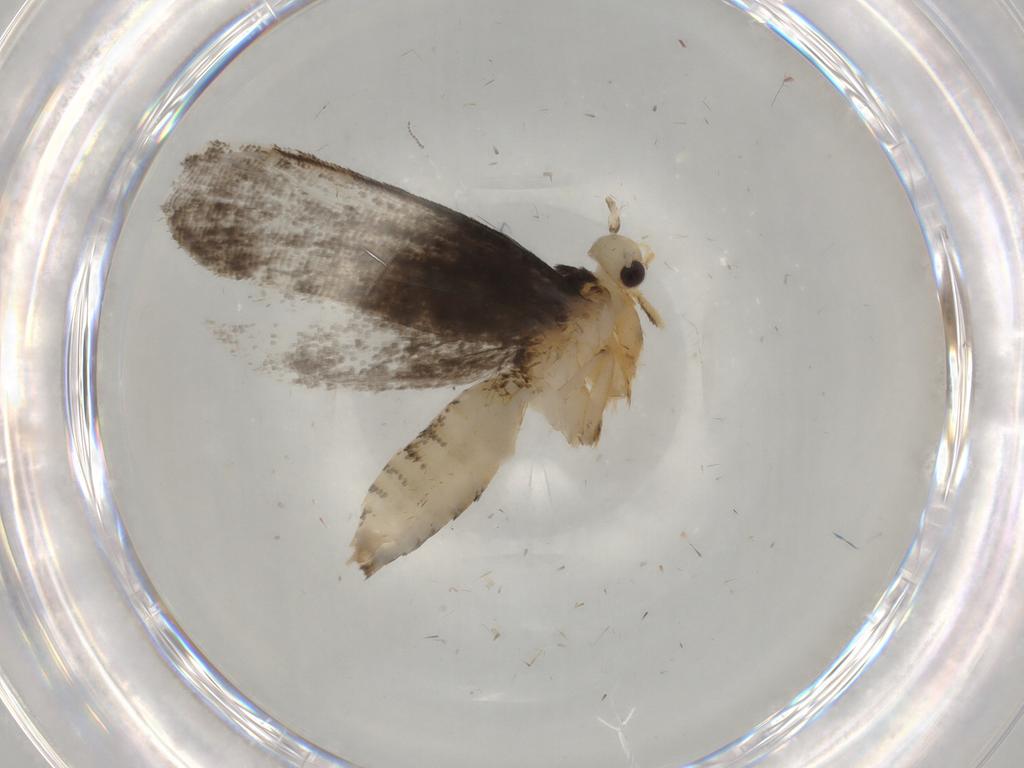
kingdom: Animalia
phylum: Arthropoda
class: Insecta
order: Lepidoptera
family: Tineidae
